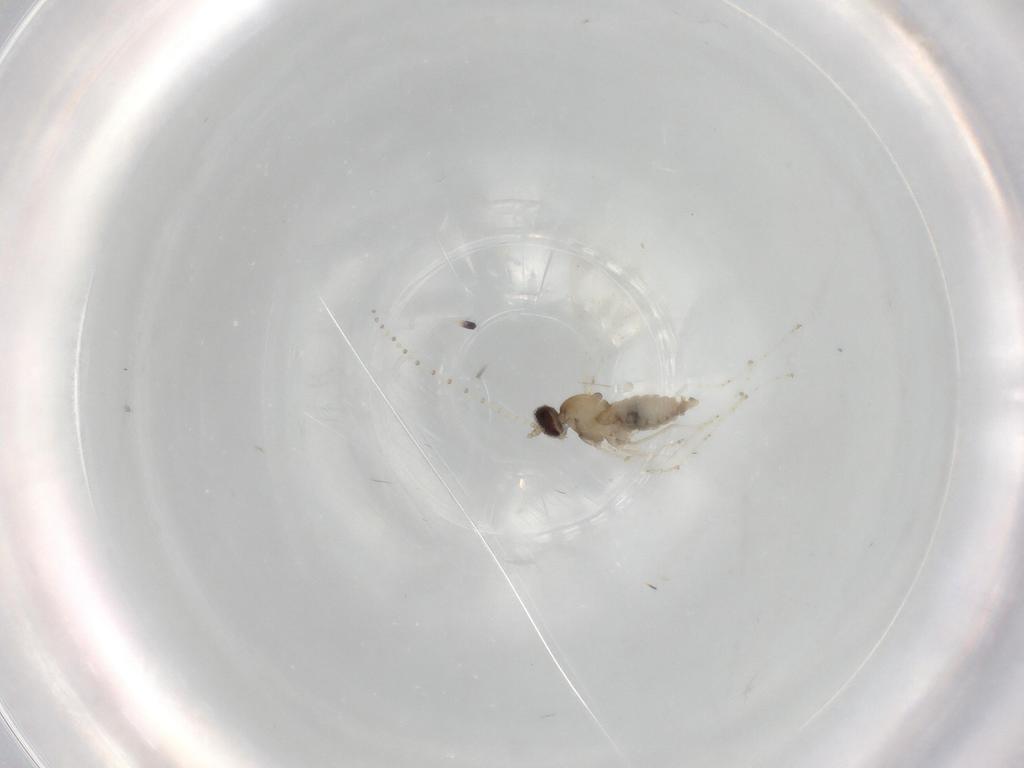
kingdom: Animalia
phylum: Arthropoda
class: Insecta
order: Diptera
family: Cecidomyiidae
